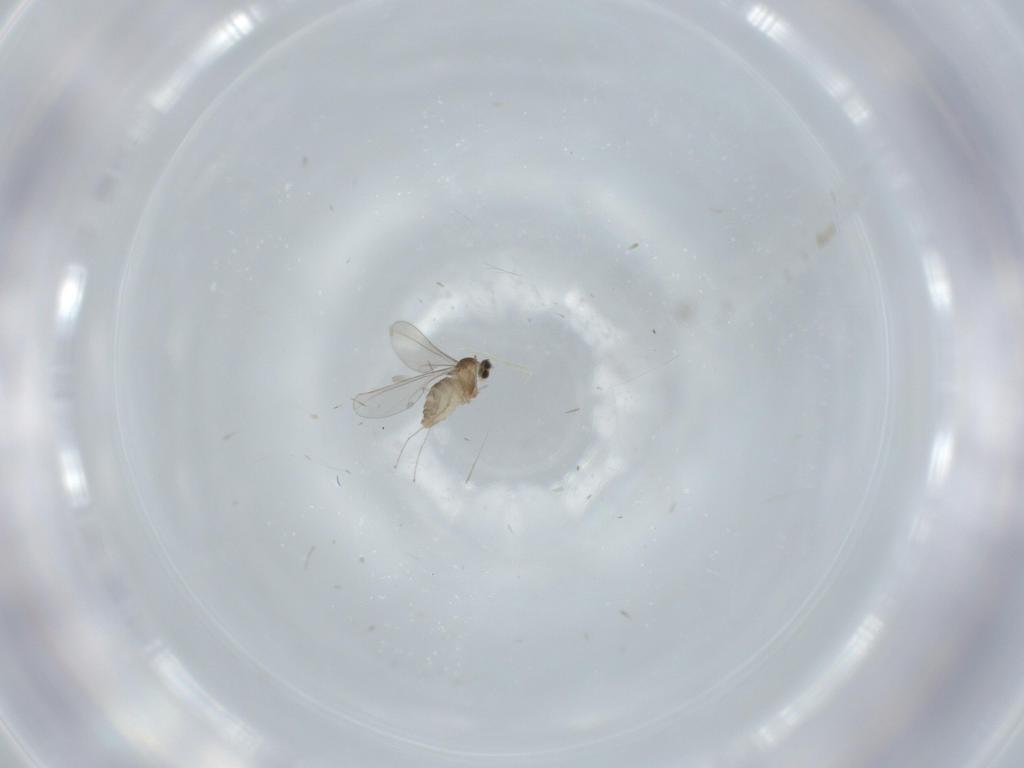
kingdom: Animalia
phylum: Arthropoda
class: Insecta
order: Diptera
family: Cecidomyiidae
